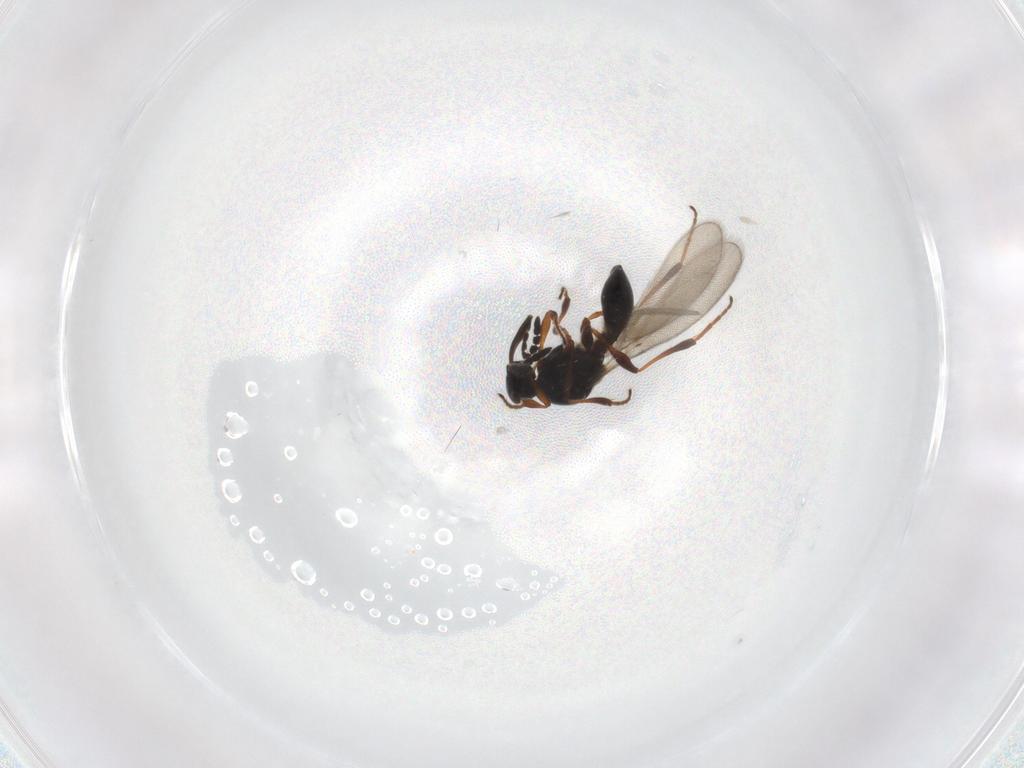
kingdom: Animalia
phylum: Arthropoda
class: Insecta
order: Hymenoptera
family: Platygastridae
